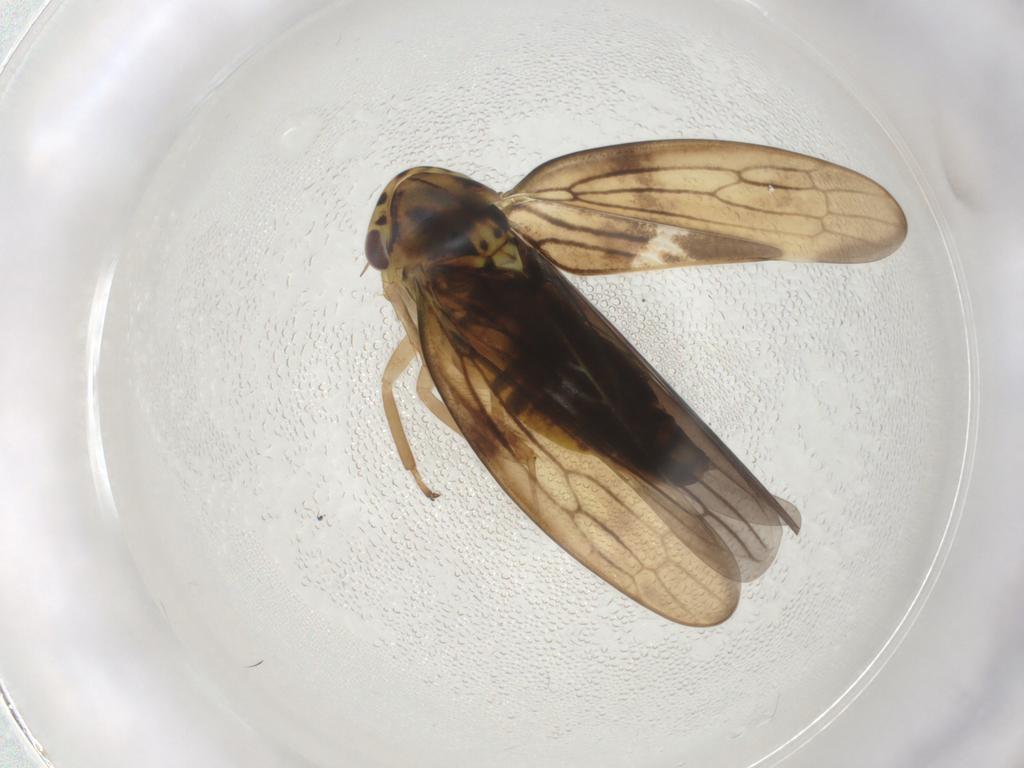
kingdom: Animalia
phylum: Arthropoda
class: Insecta
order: Hemiptera
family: Cicadellidae
